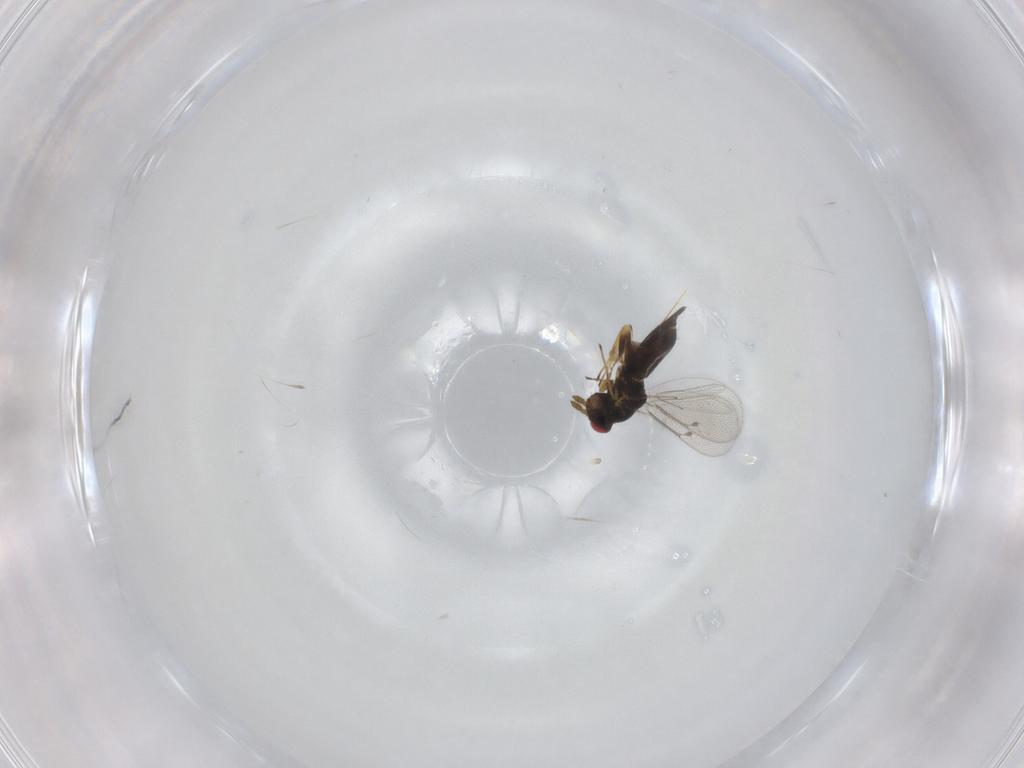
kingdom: Animalia
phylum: Arthropoda
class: Insecta
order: Hymenoptera
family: Eulophidae
